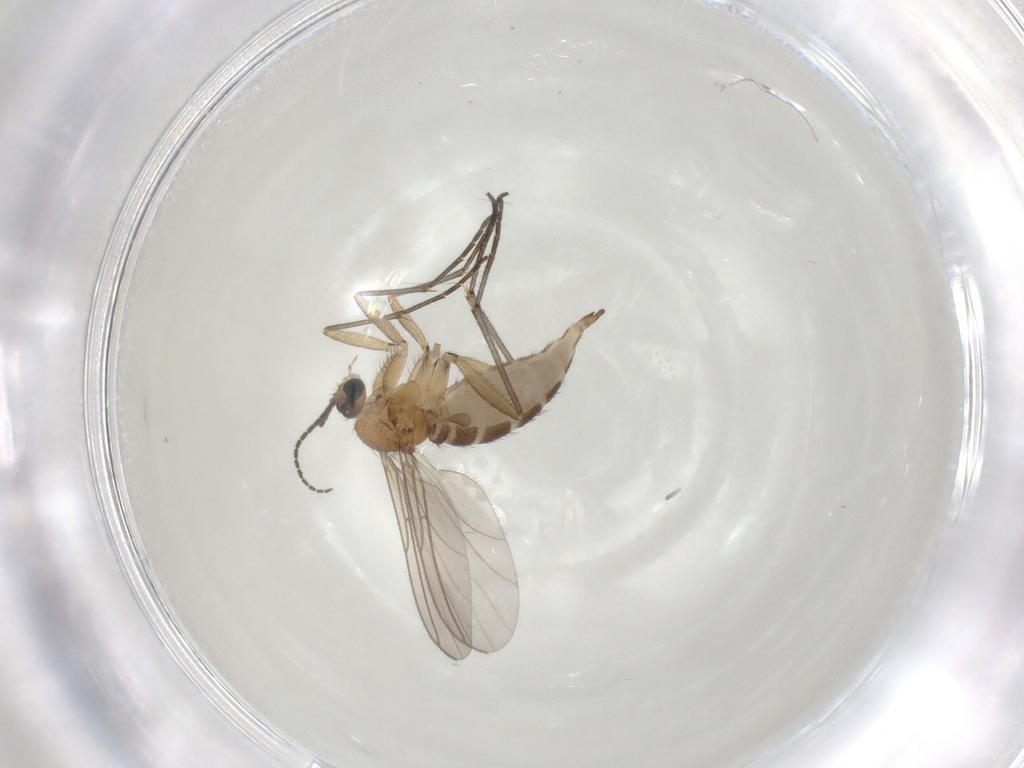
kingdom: Animalia
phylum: Arthropoda
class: Insecta
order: Diptera
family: Sciaridae
